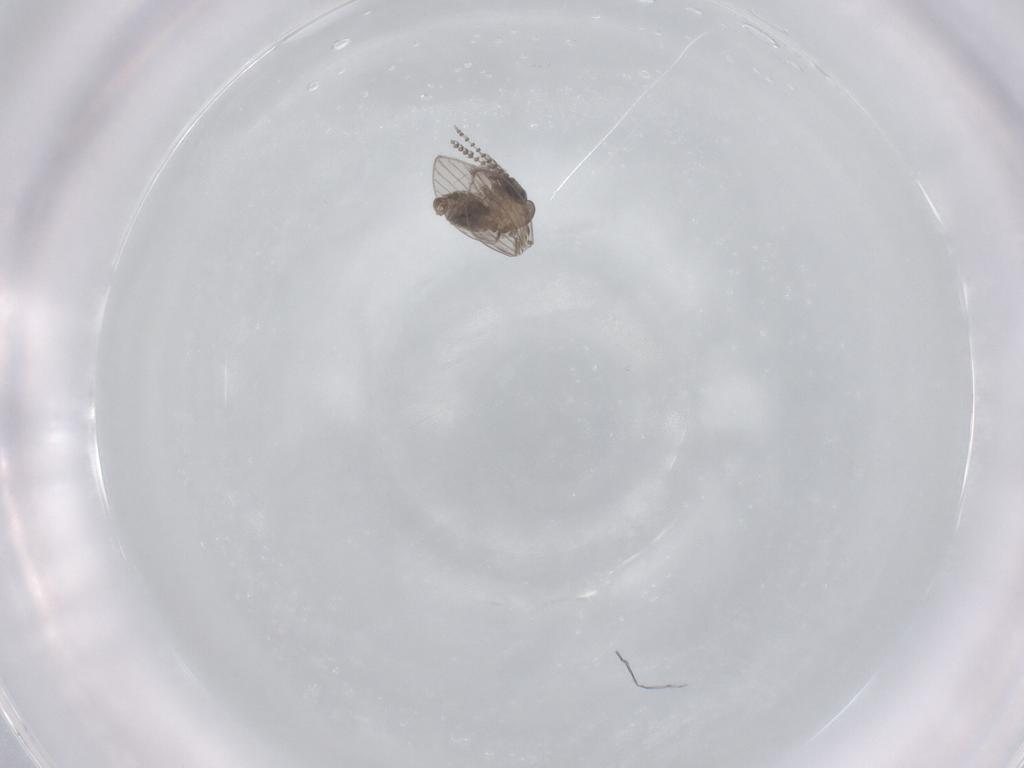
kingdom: Animalia
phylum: Arthropoda
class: Insecta
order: Diptera
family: Psychodidae
